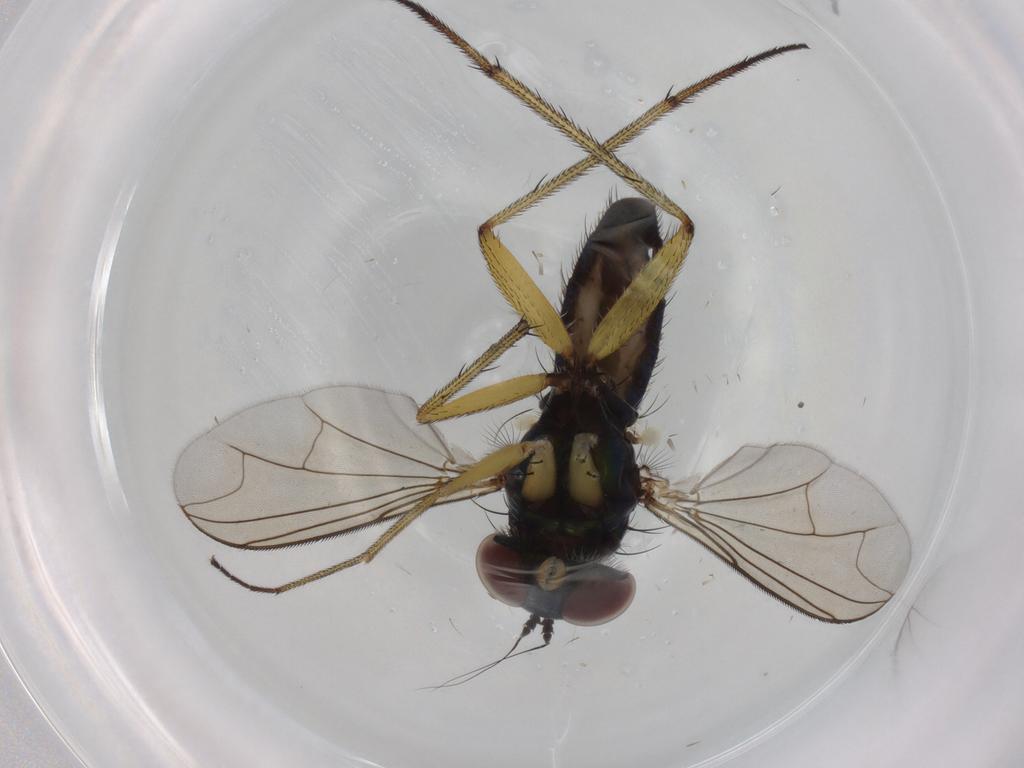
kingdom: Animalia
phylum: Arthropoda
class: Insecta
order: Diptera
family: Dolichopodidae
